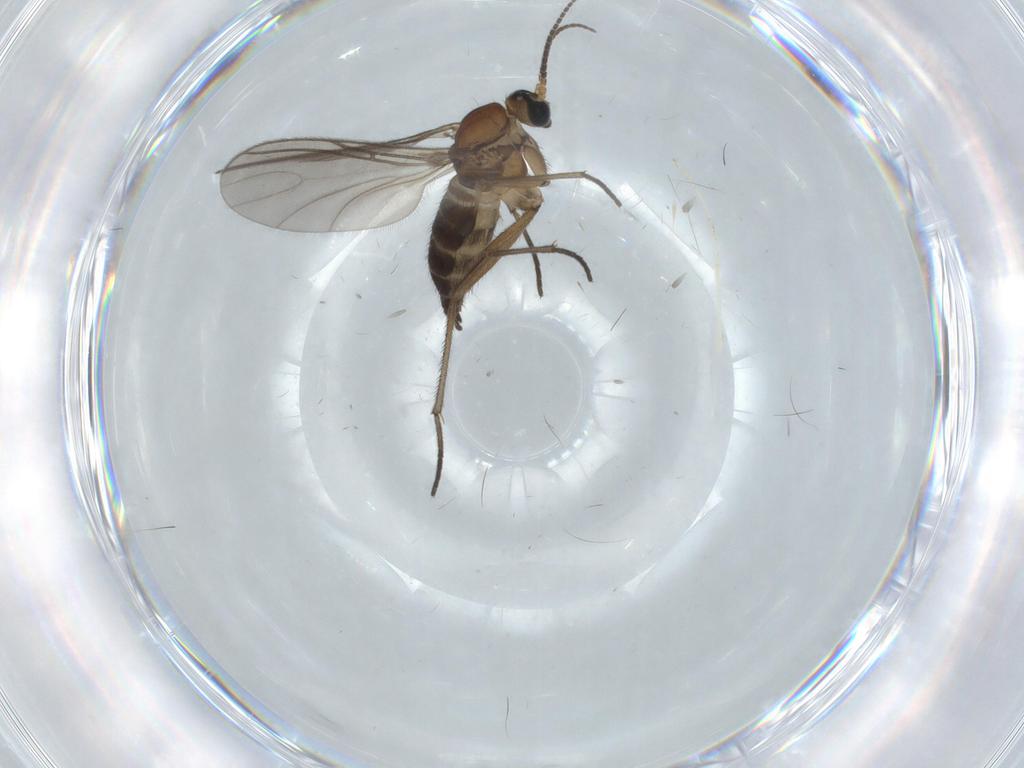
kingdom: Animalia
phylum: Arthropoda
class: Insecta
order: Diptera
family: Sciaridae
